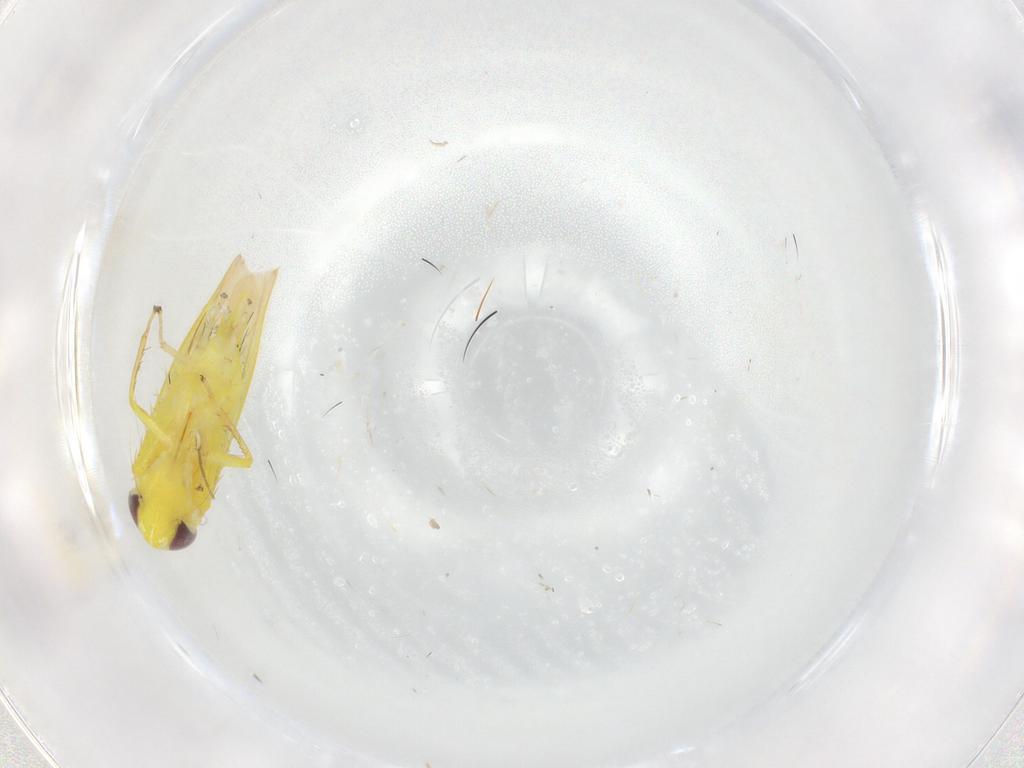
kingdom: Animalia
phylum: Arthropoda
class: Insecta
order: Hemiptera
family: Cicadellidae
